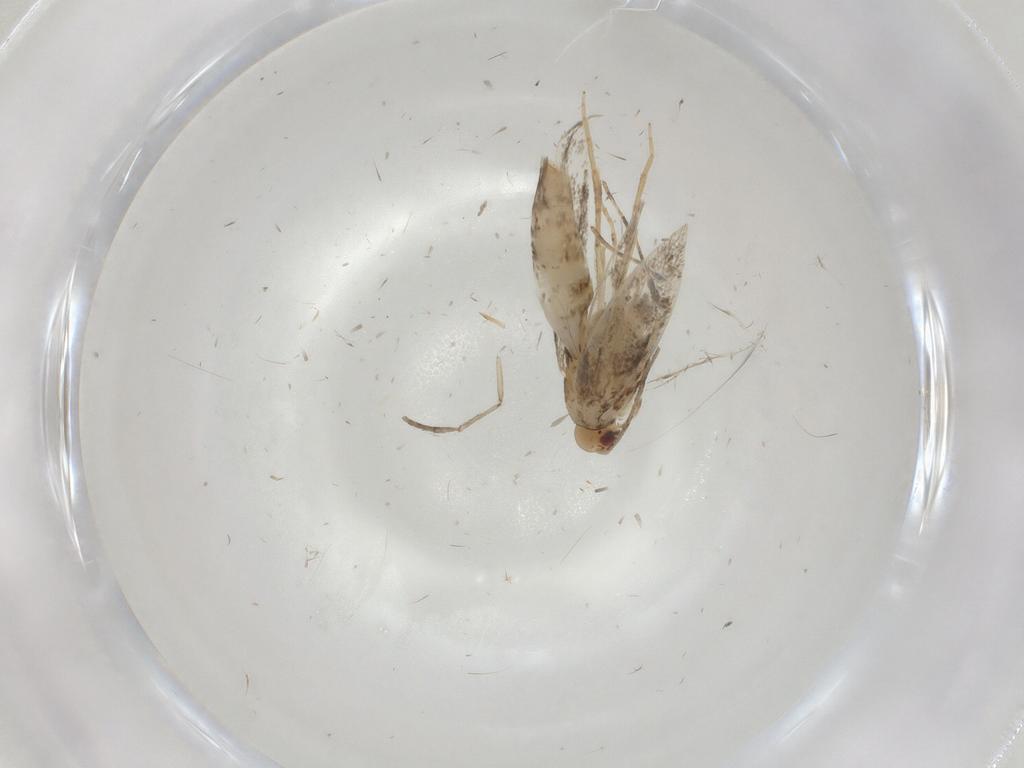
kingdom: Animalia
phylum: Arthropoda
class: Insecta
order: Lepidoptera
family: Gracillariidae
